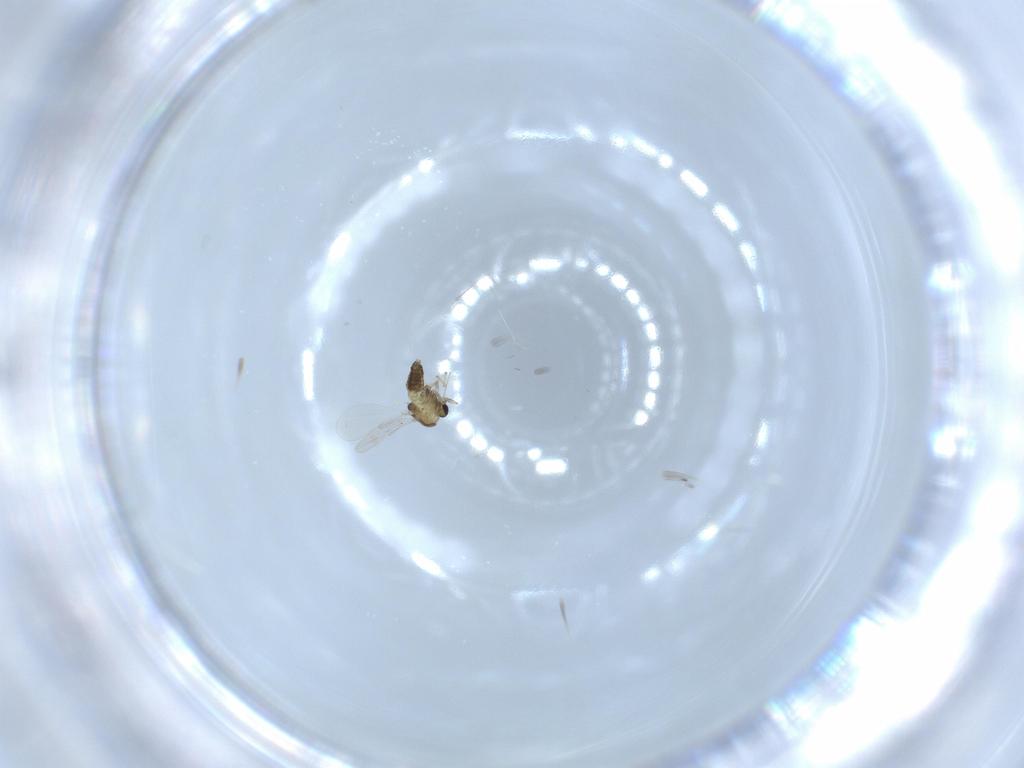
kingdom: Animalia
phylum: Arthropoda
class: Insecta
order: Diptera
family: Chironomidae
